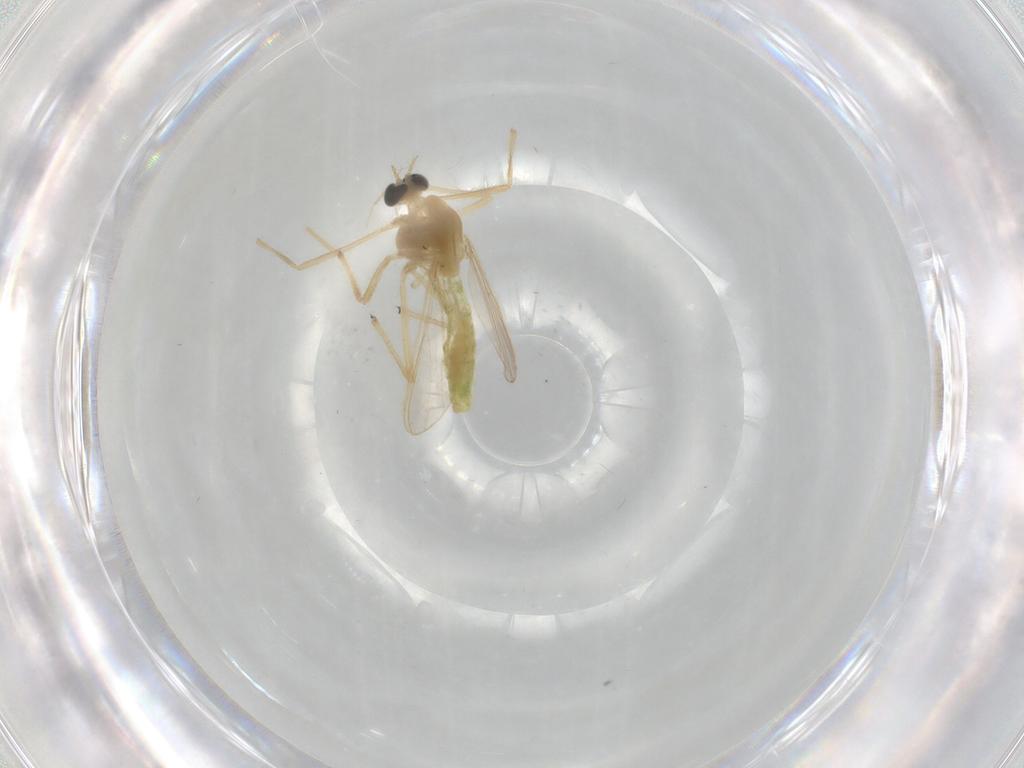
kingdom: Animalia
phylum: Arthropoda
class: Insecta
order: Diptera
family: Chironomidae
